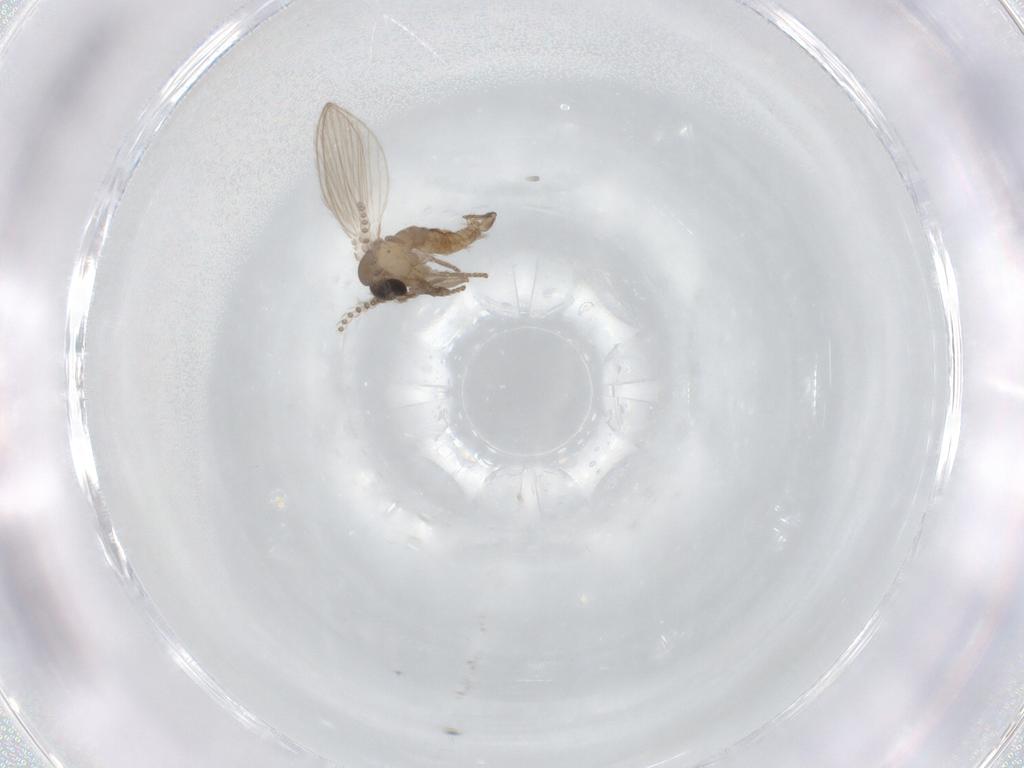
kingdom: Animalia
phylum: Arthropoda
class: Insecta
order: Diptera
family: Psychodidae
